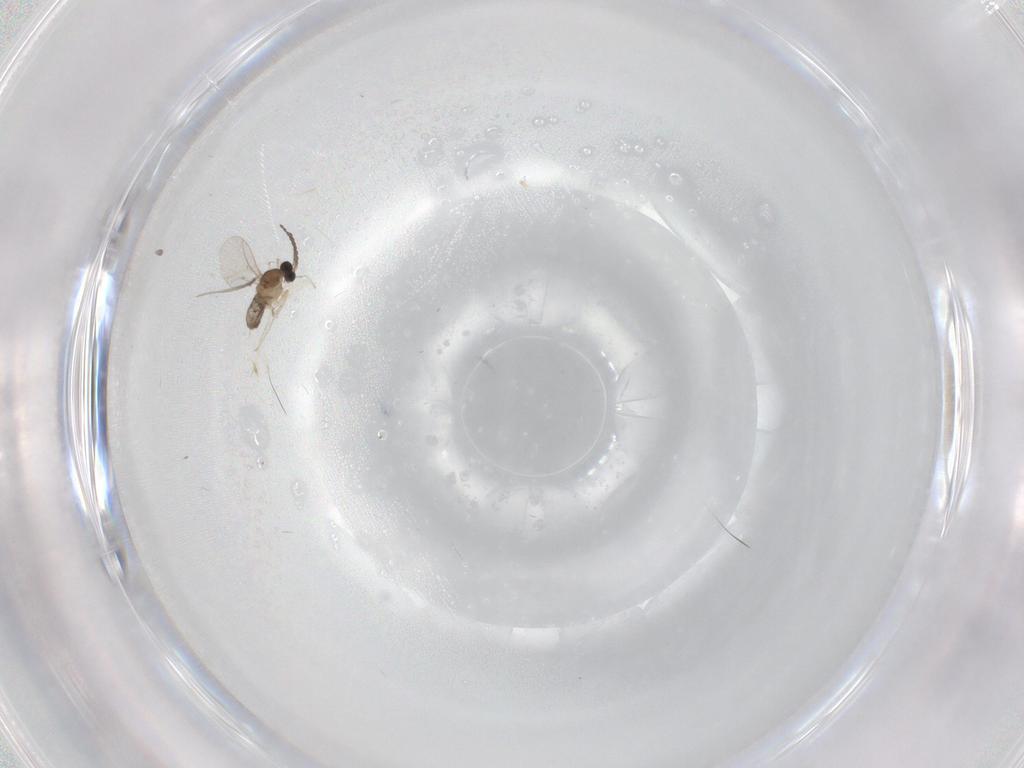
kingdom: Animalia
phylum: Arthropoda
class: Insecta
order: Diptera
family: Cecidomyiidae
